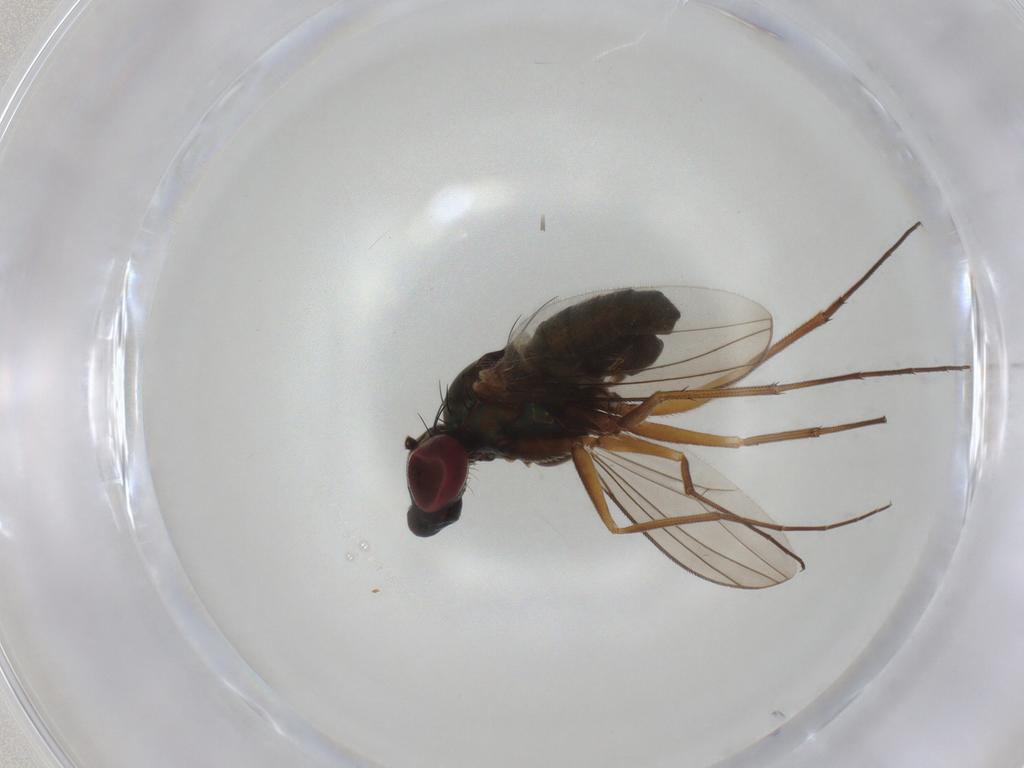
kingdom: Animalia
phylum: Arthropoda
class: Insecta
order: Diptera
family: Dolichopodidae
